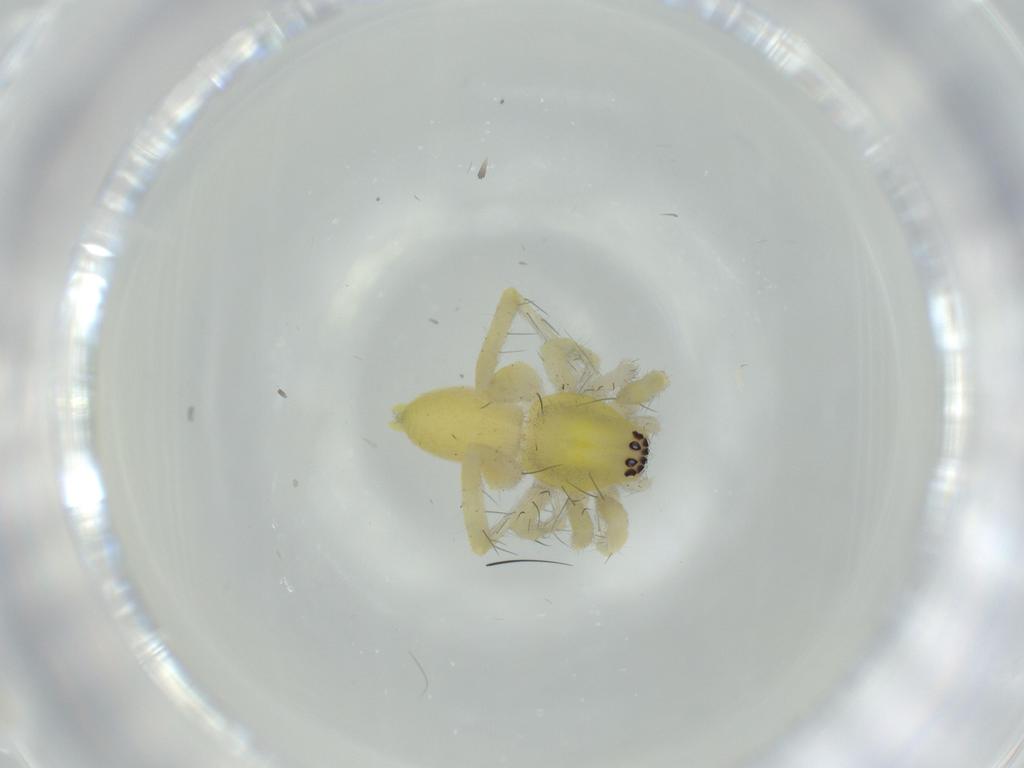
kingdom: Animalia
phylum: Arthropoda
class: Arachnida
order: Araneae
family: Anyphaenidae
